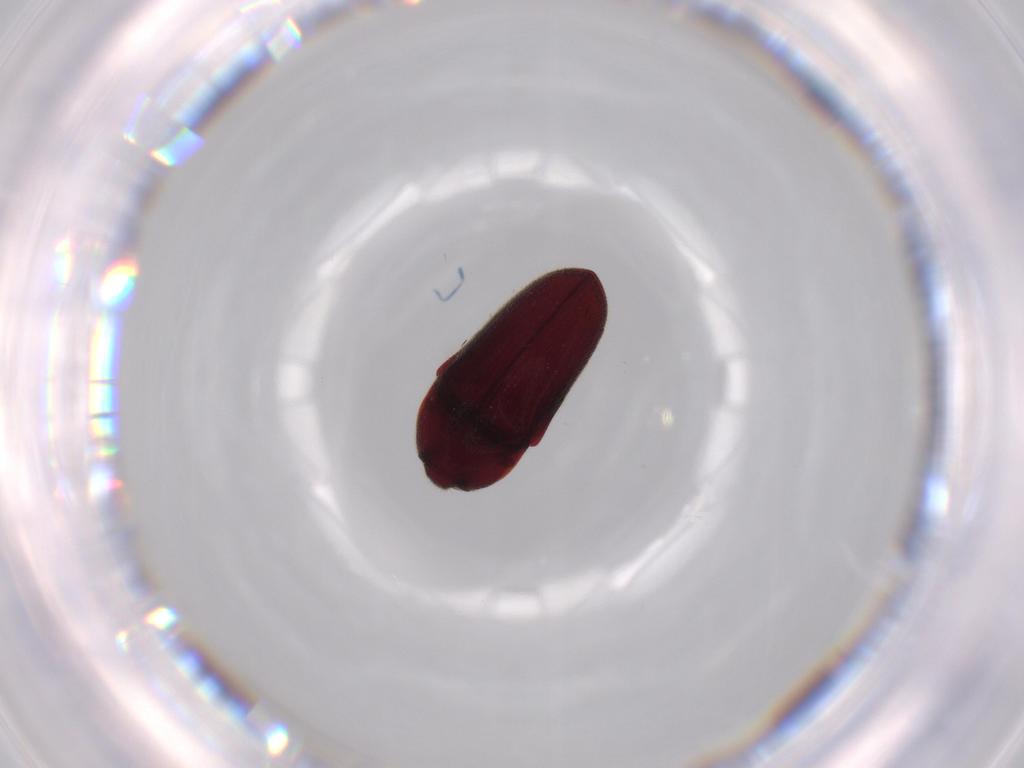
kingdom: Animalia
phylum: Arthropoda
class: Insecta
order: Coleoptera
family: Throscidae
